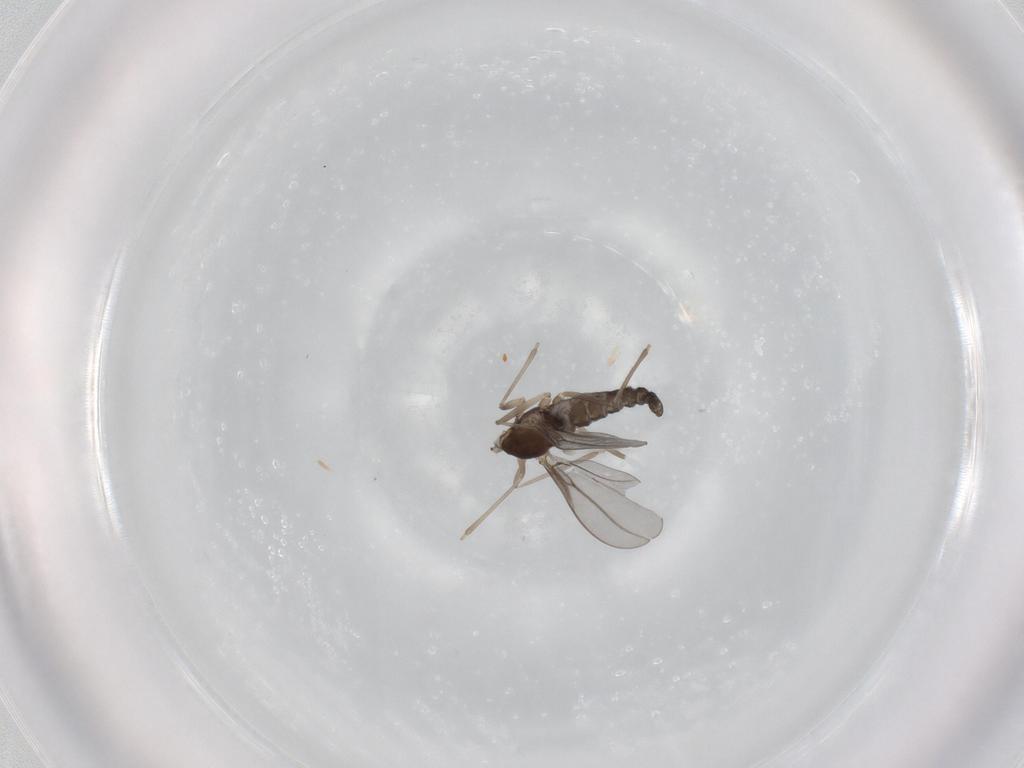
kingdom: Animalia
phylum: Arthropoda
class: Insecta
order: Diptera
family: Cecidomyiidae
